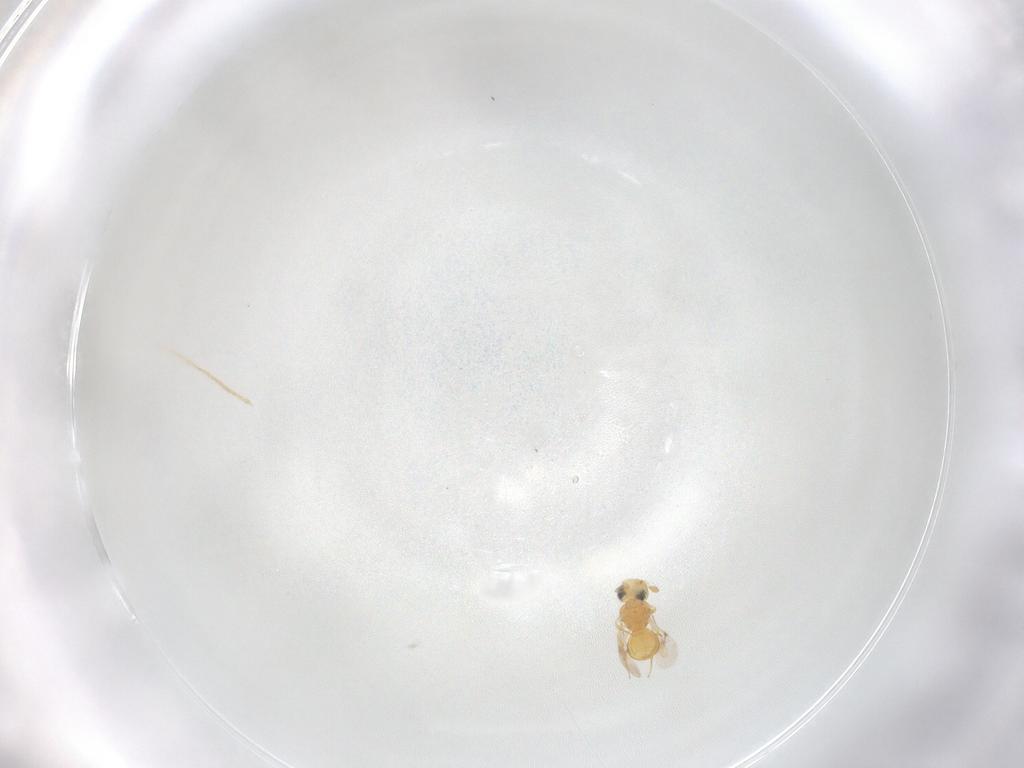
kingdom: Animalia
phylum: Arthropoda
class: Insecta
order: Hymenoptera
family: Scelionidae
